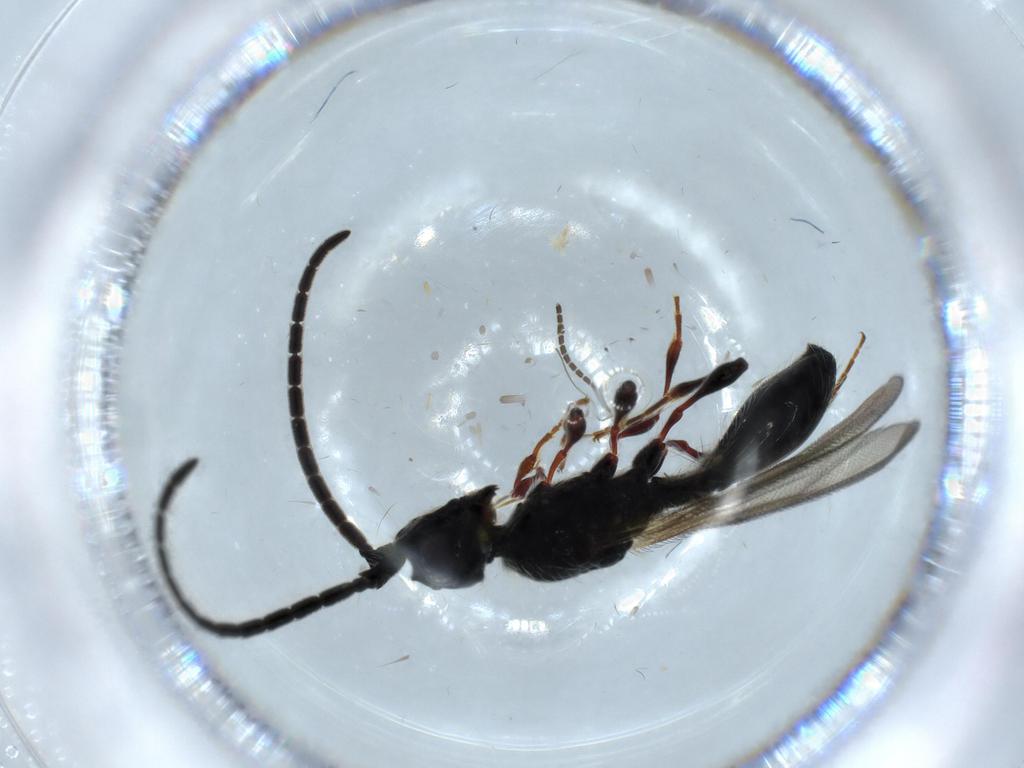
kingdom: Animalia
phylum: Arthropoda
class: Insecta
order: Hymenoptera
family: Diapriidae
